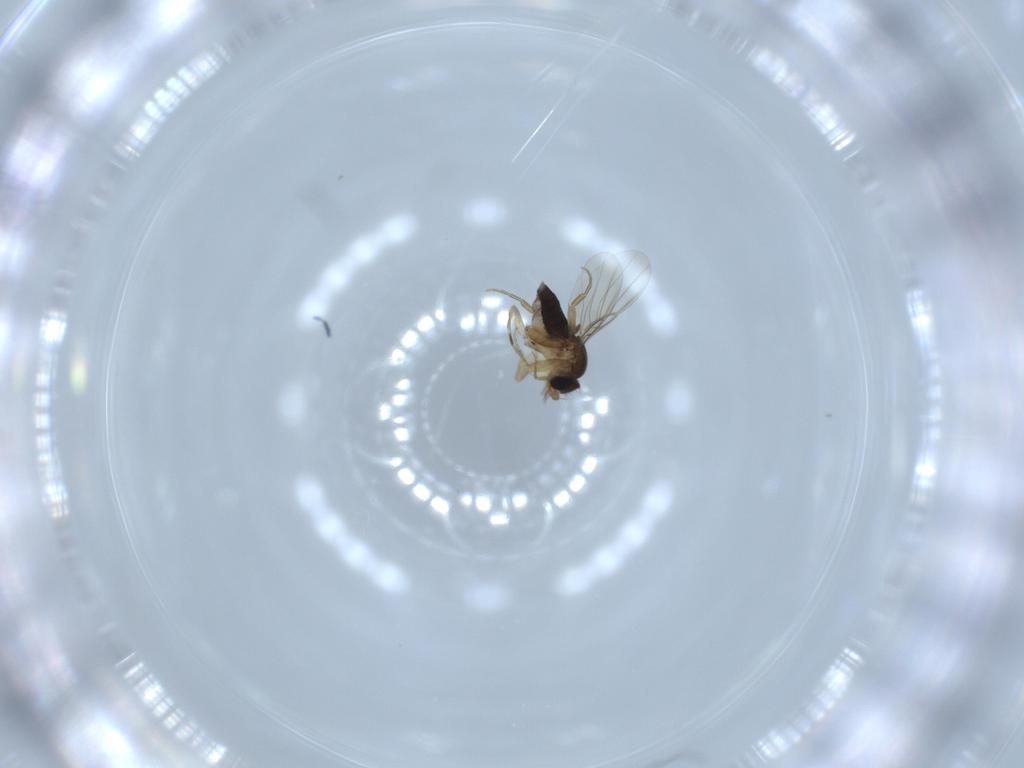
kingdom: Animalia
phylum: Arthropoda
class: Insecta
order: Diptera
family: Phoridae
